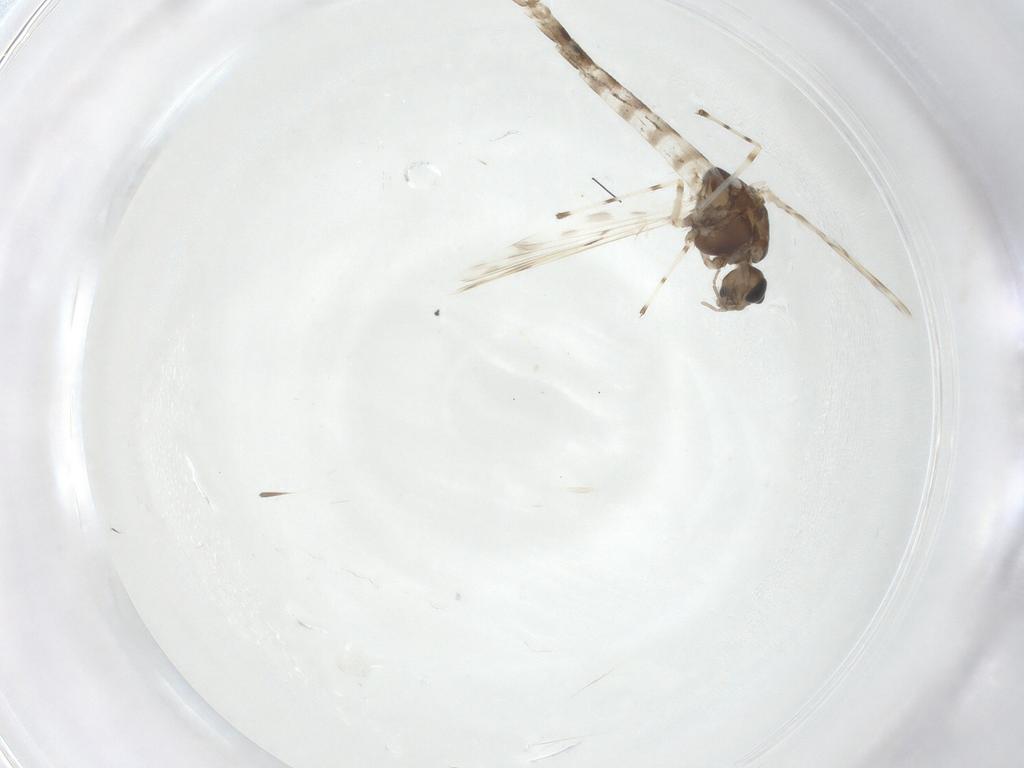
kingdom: Animalia
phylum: Arthropoda
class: Insecta
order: Diptera
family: Chironomidae
